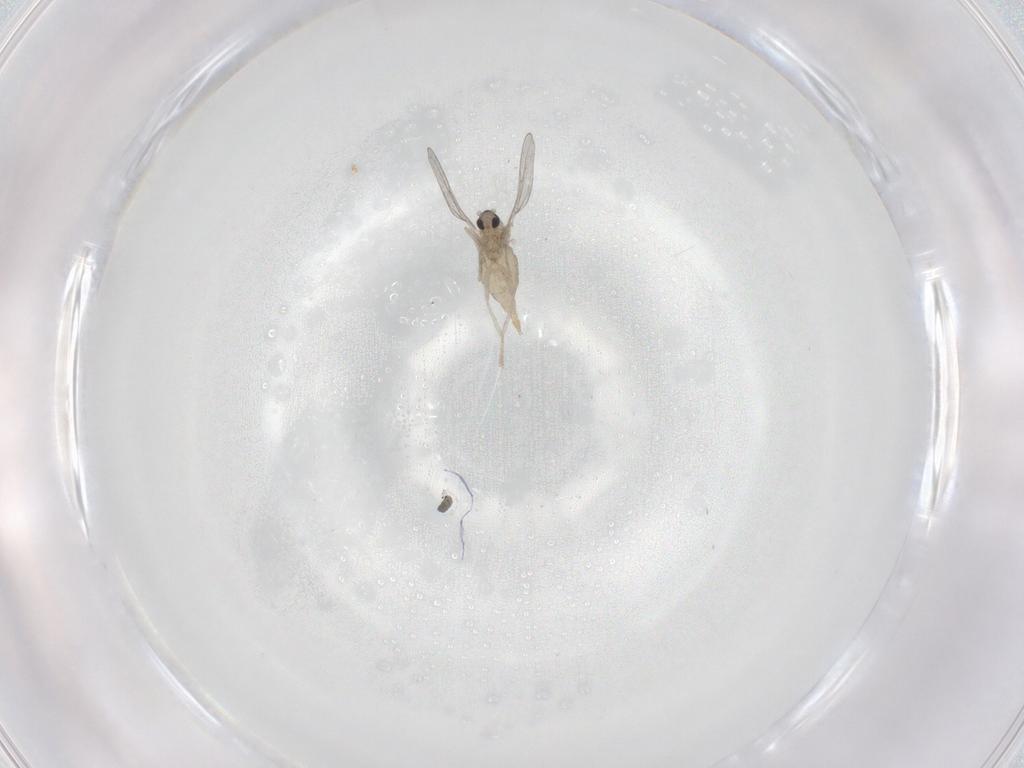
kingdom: Animalia
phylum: Arthropoda
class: Insecta
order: Diptera
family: Cecidomyiidae
